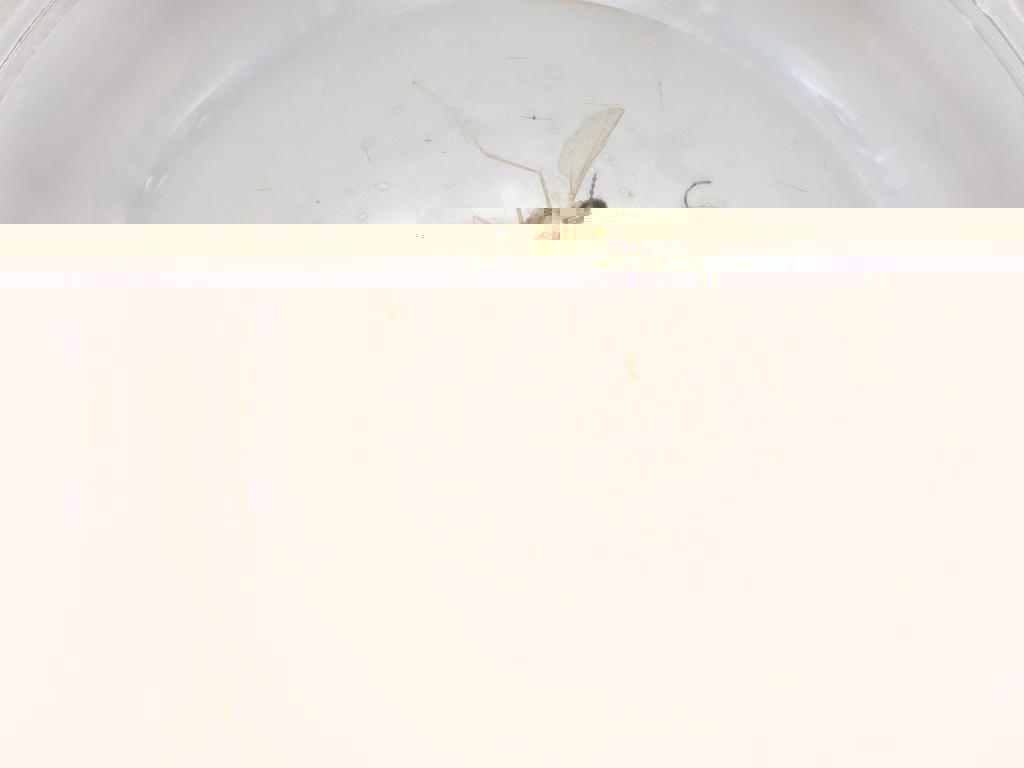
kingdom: Animalia
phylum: Arthropoda
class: Insecta
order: Diptera
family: Cecidomyiidae
